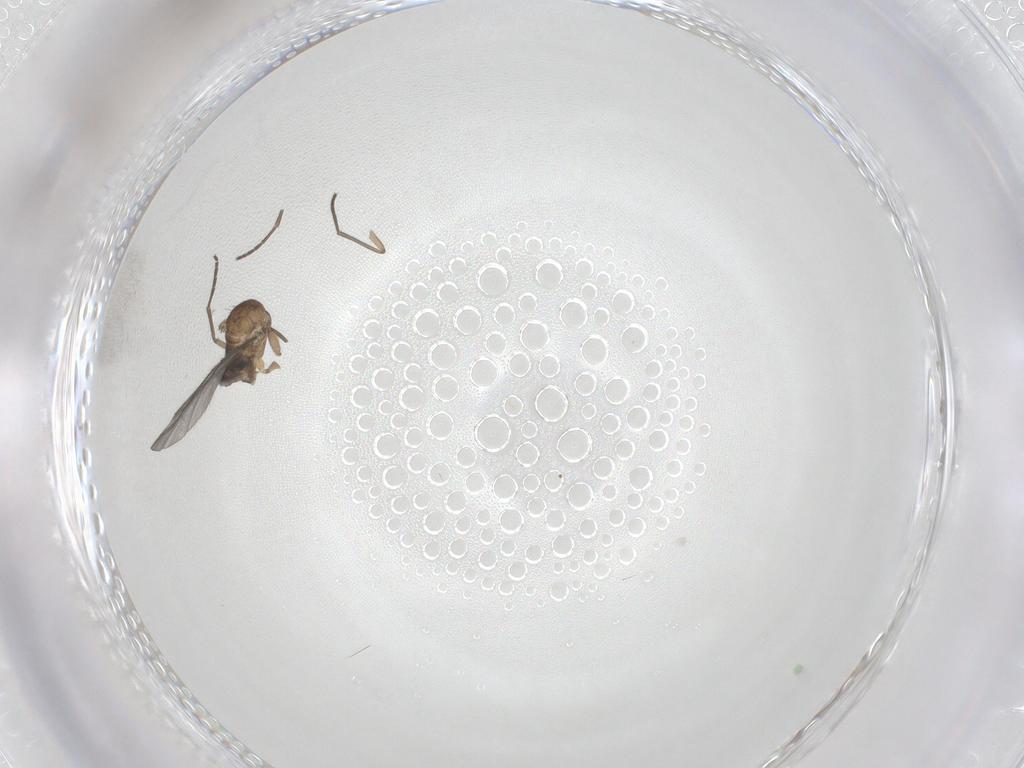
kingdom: Animalia
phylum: Arthropoda
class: Insecta
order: Diptera
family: Sciaridae
